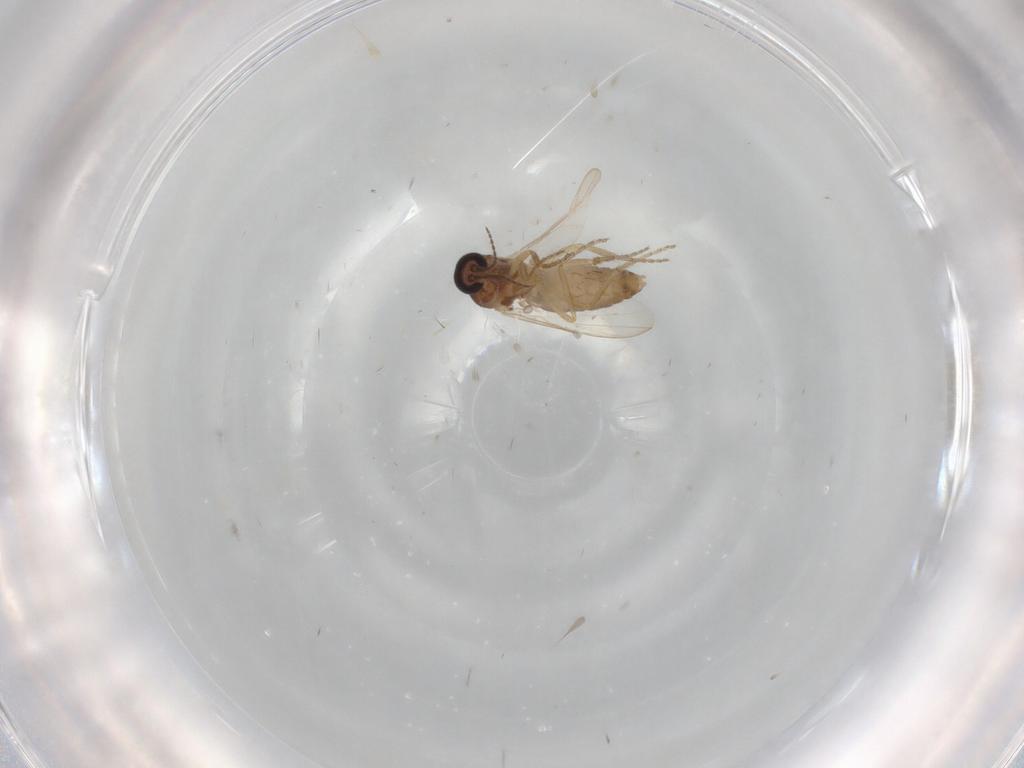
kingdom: Animalia
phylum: Arthropoda
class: Insecta
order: Diptera
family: Ceratopogonidae
